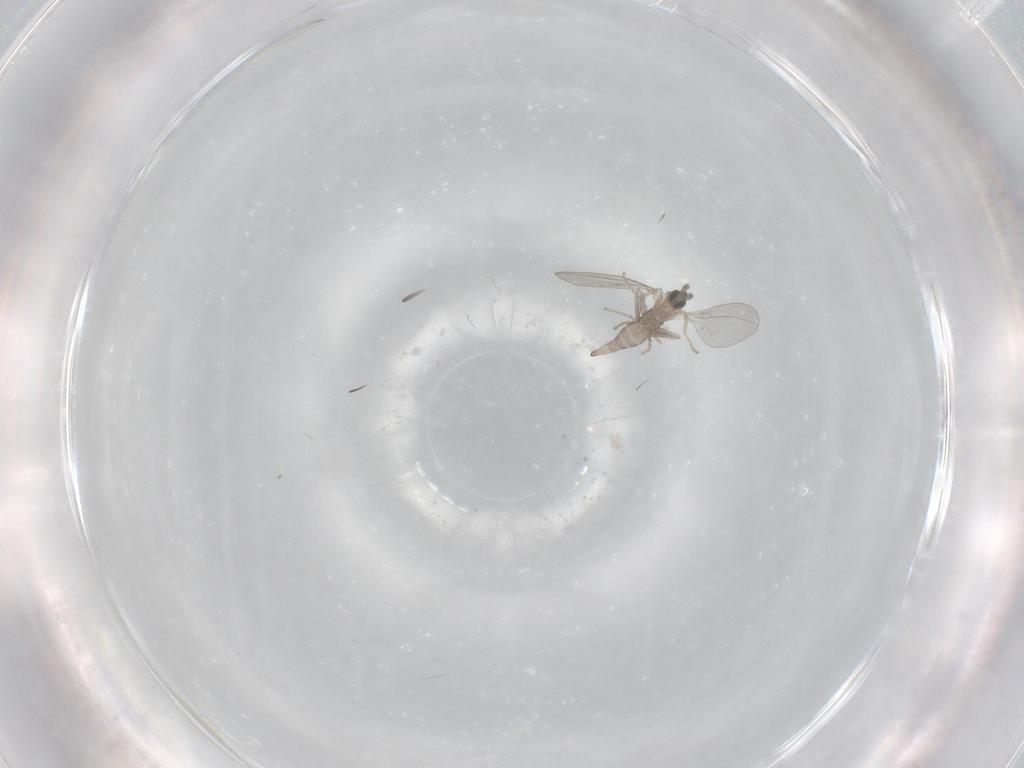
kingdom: Animalia
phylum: Arthropoda
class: Insecta
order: Diptera
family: Cecidomyiidae
